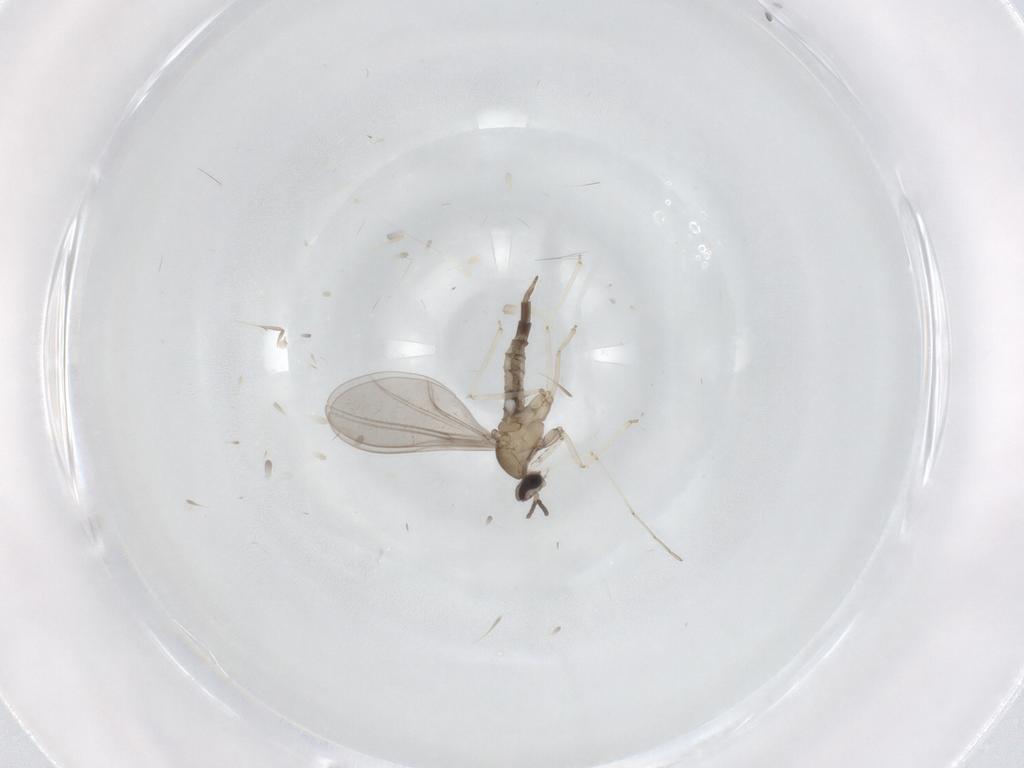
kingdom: Animalia
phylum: Arthropoda
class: Insecta
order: Diptera
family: Cecidomyiidae
